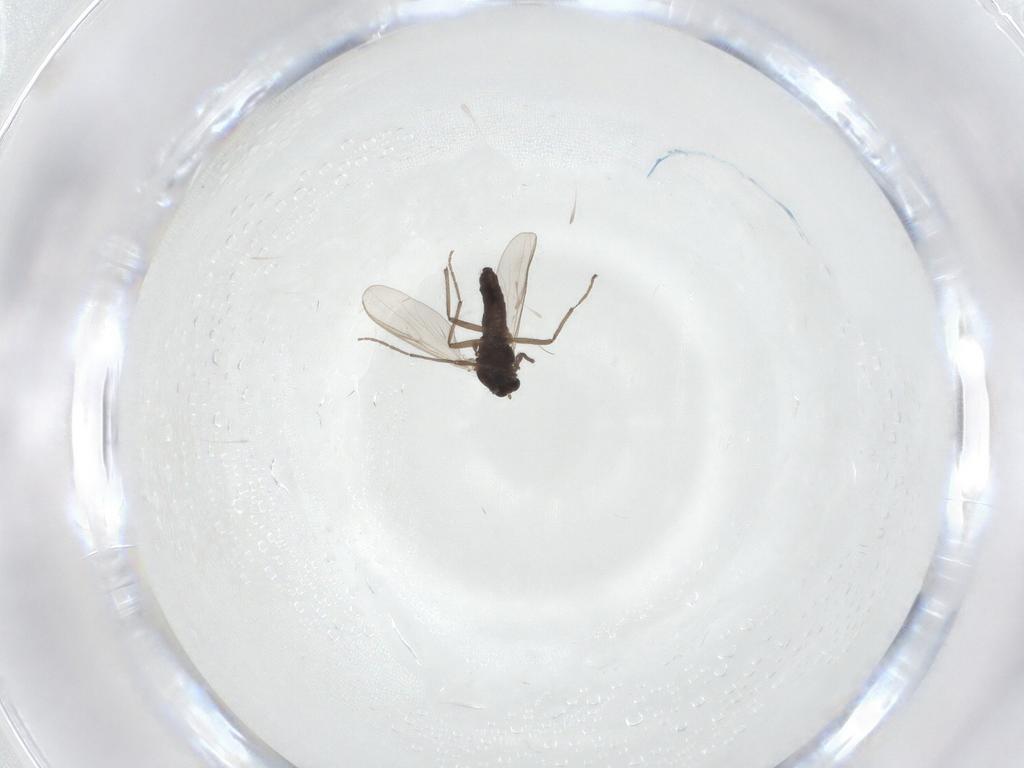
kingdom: Animalia
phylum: Arthropoda
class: Insecta
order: Diptera
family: Chironomidae
